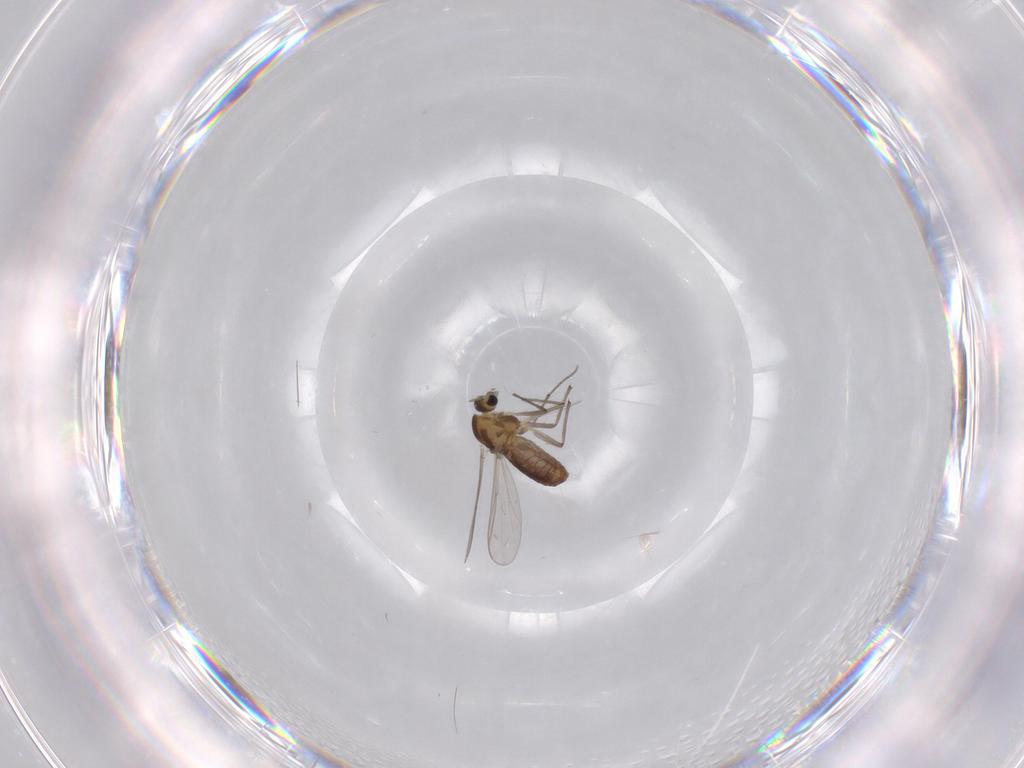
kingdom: Animalia
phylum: Arthropoda
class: Insecta
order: Diptera
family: Chironomidae
